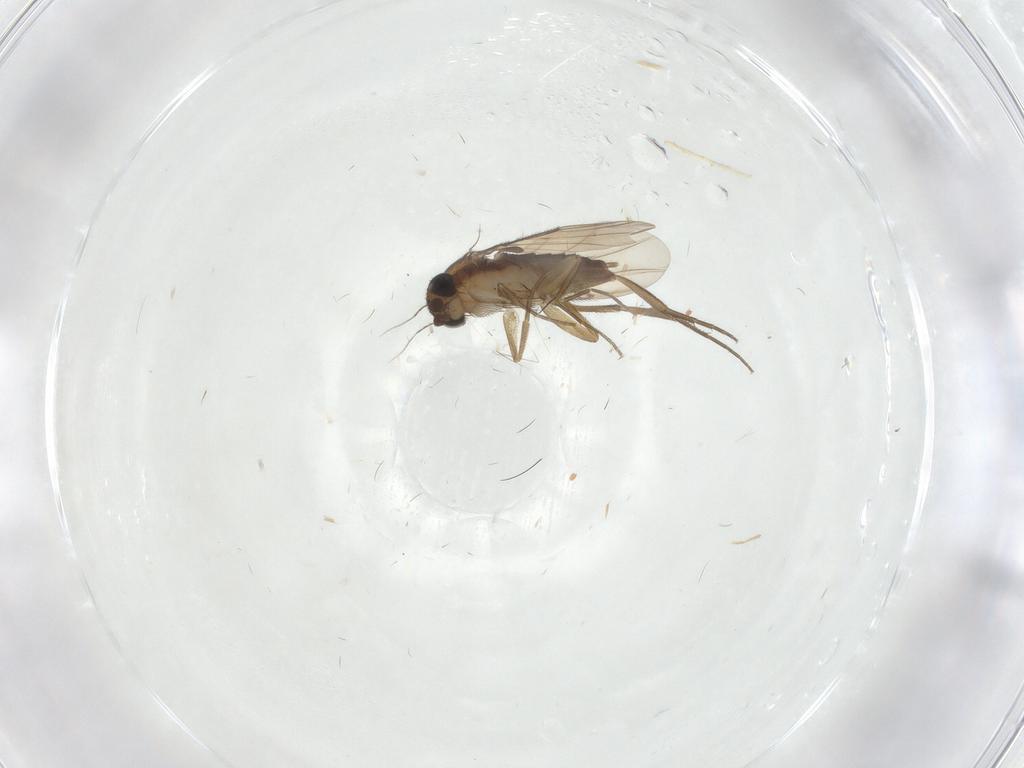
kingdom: Animalia
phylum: Arthropoda
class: Insecta
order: Diptera
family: Phoridae
